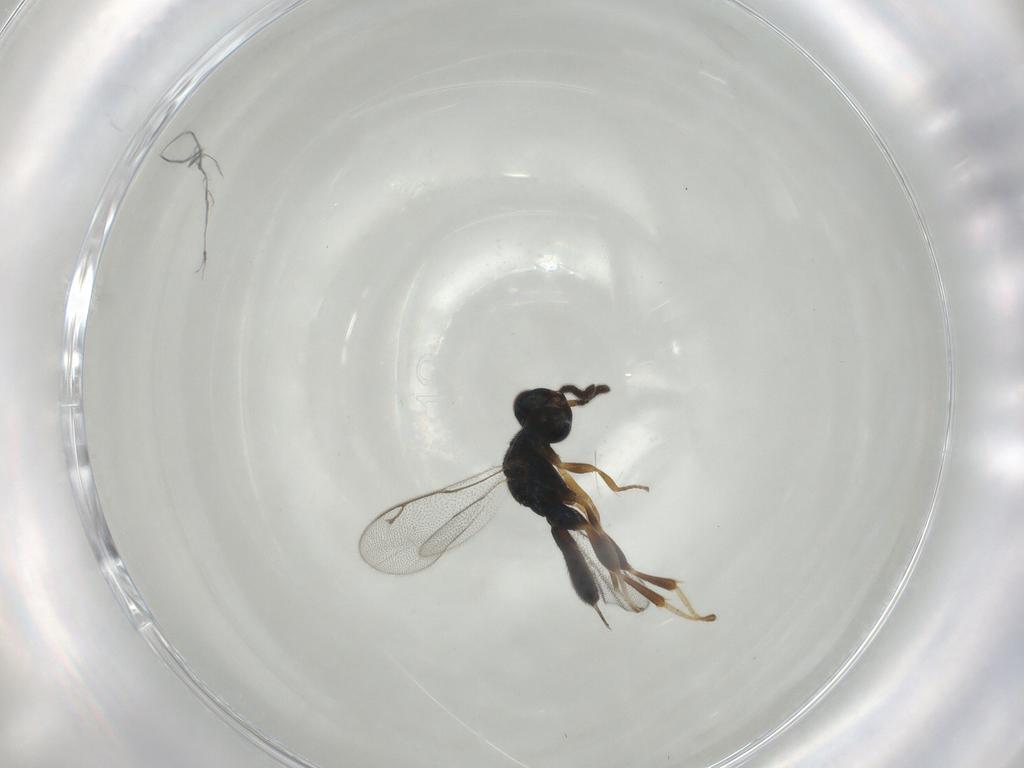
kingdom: Animalia
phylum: Arthropoda
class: Insecta
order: Hymenoptera
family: Cleonyminae
